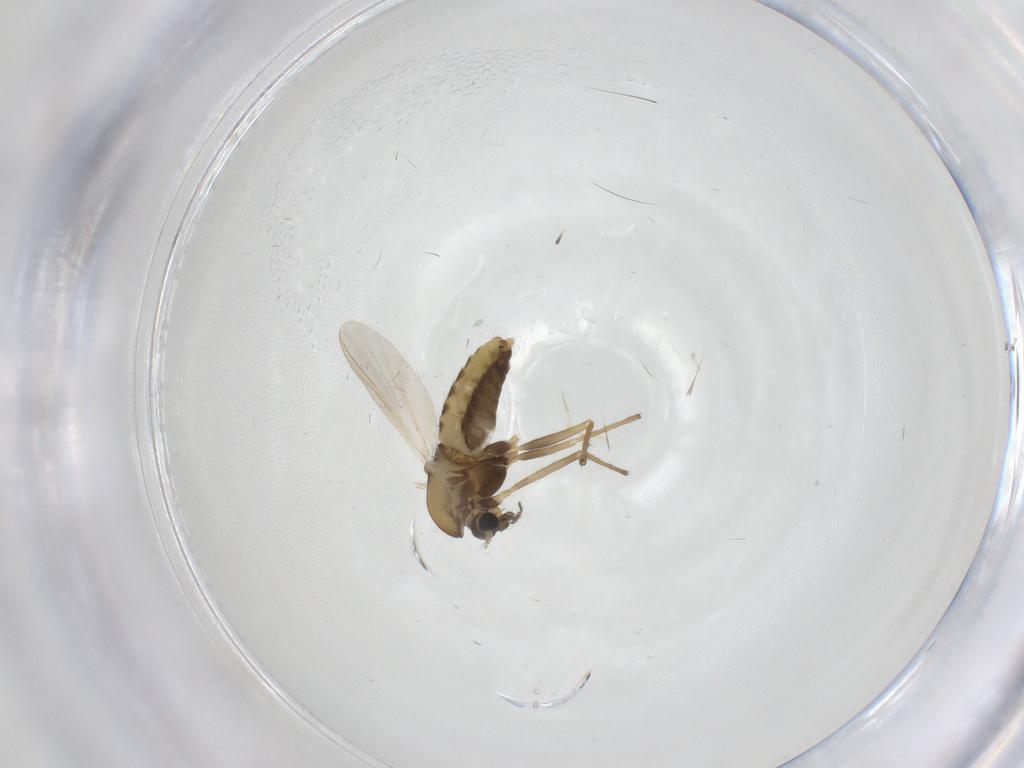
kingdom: Animalia
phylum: Arthropoda
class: Insecta
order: Diptera
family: Chironomidae
